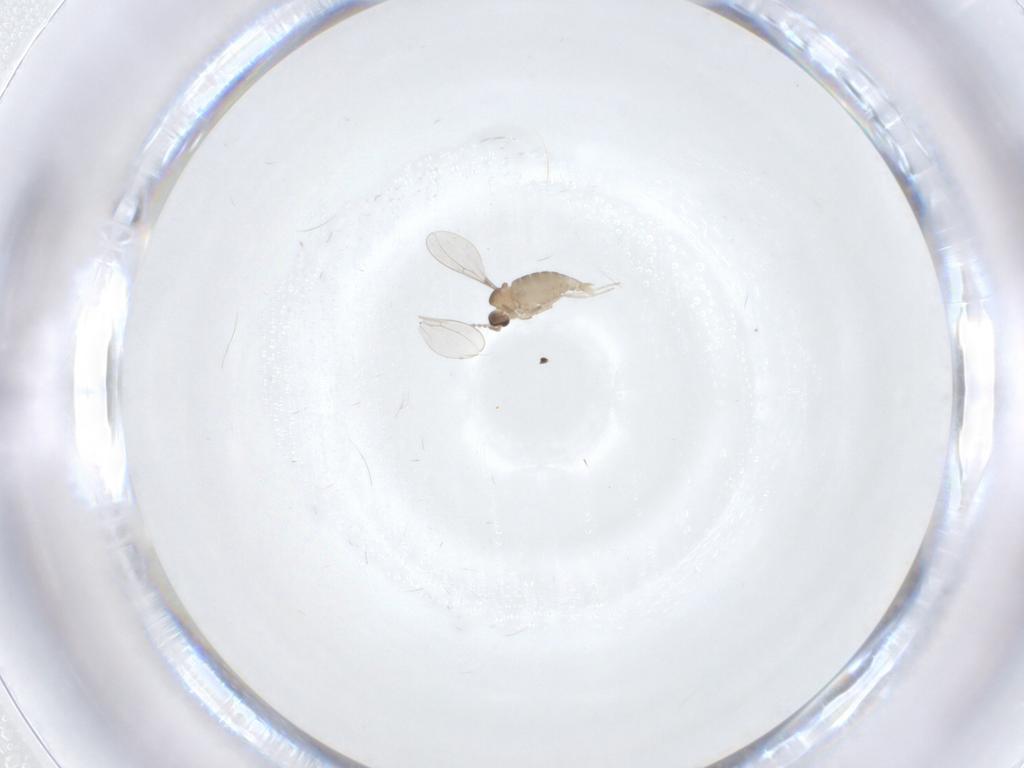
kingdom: Animalia
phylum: Arthropoda
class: Insecta
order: Diptera
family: Cecidomyiidae
